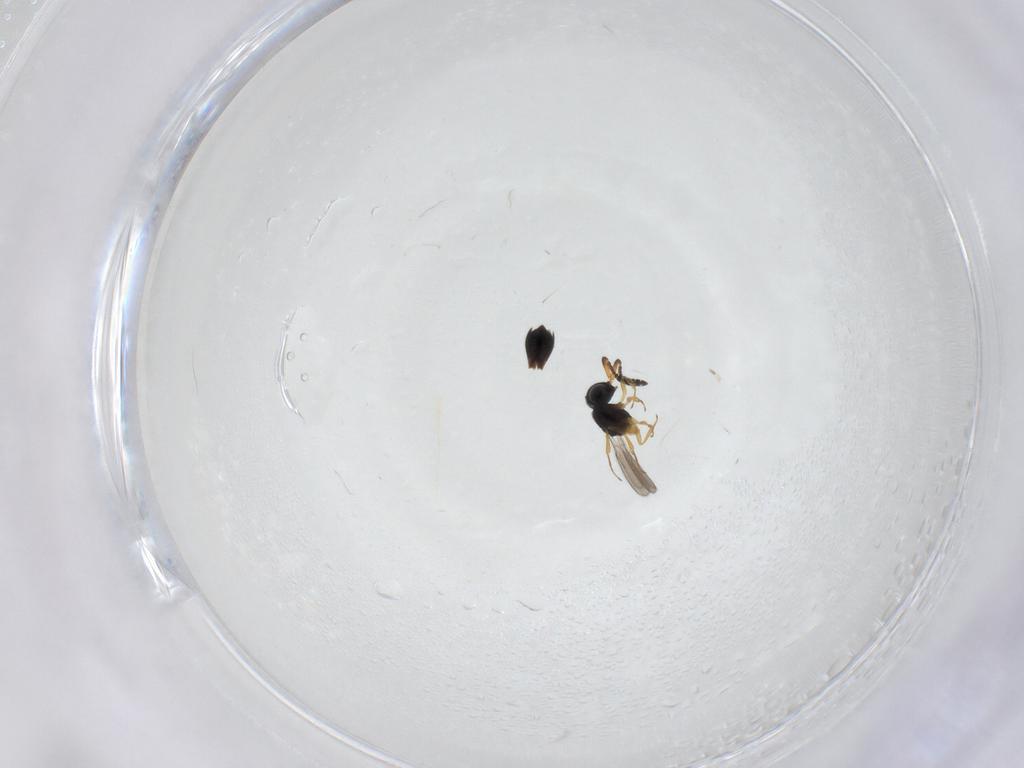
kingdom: Animalia
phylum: Arthropoda
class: Insecta
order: Hymenoptera
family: Scelionidae
